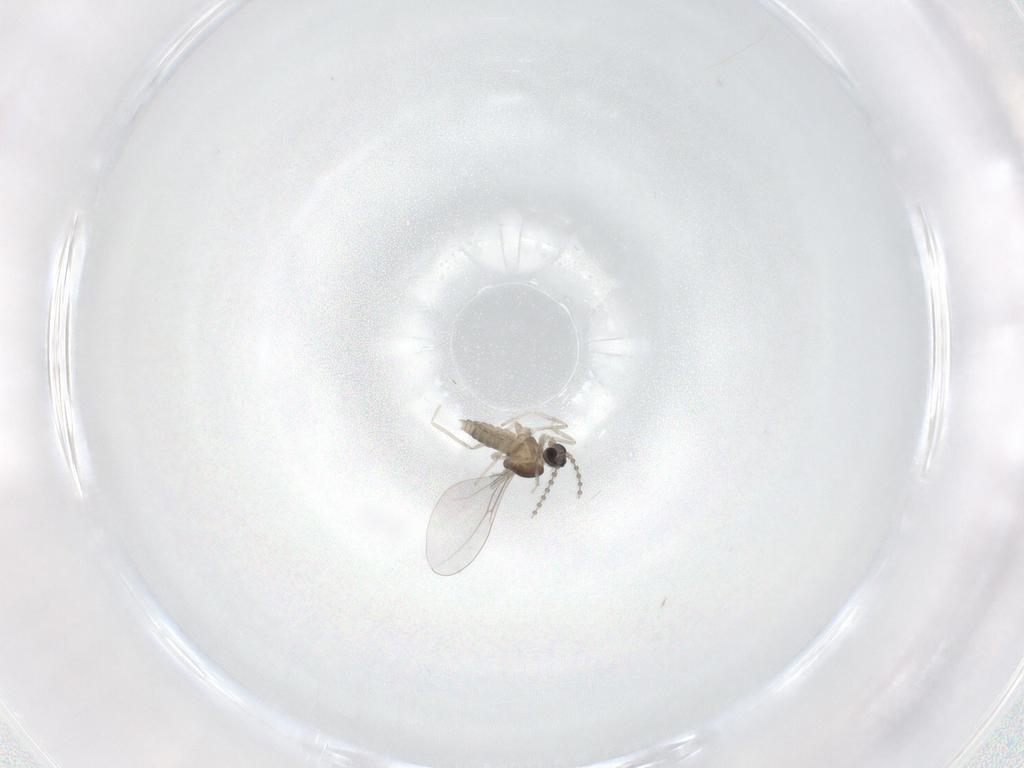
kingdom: Animalia
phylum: Arthropoda
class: Insecta
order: Diptera
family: Cecidomyiidae
